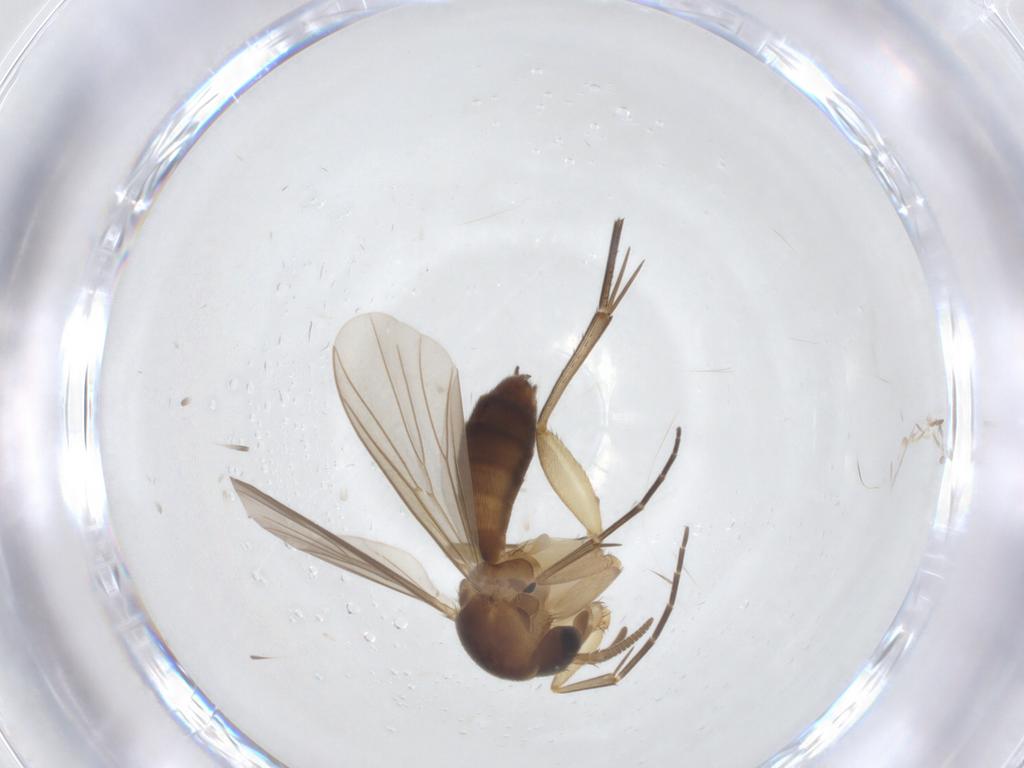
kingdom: Animalia
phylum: Arthropoda
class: Insecta
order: Diptera
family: Mycetophilidae
